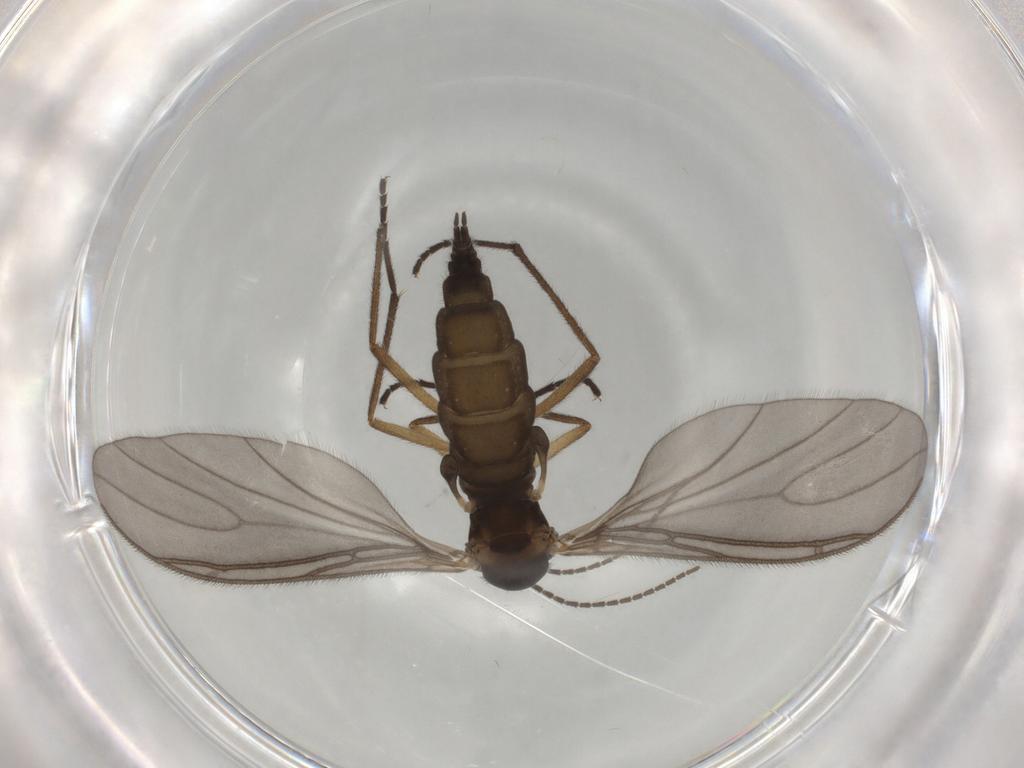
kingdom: Animalia
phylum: Arthropoda
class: Insecta
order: Diptera
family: Sciaridae
